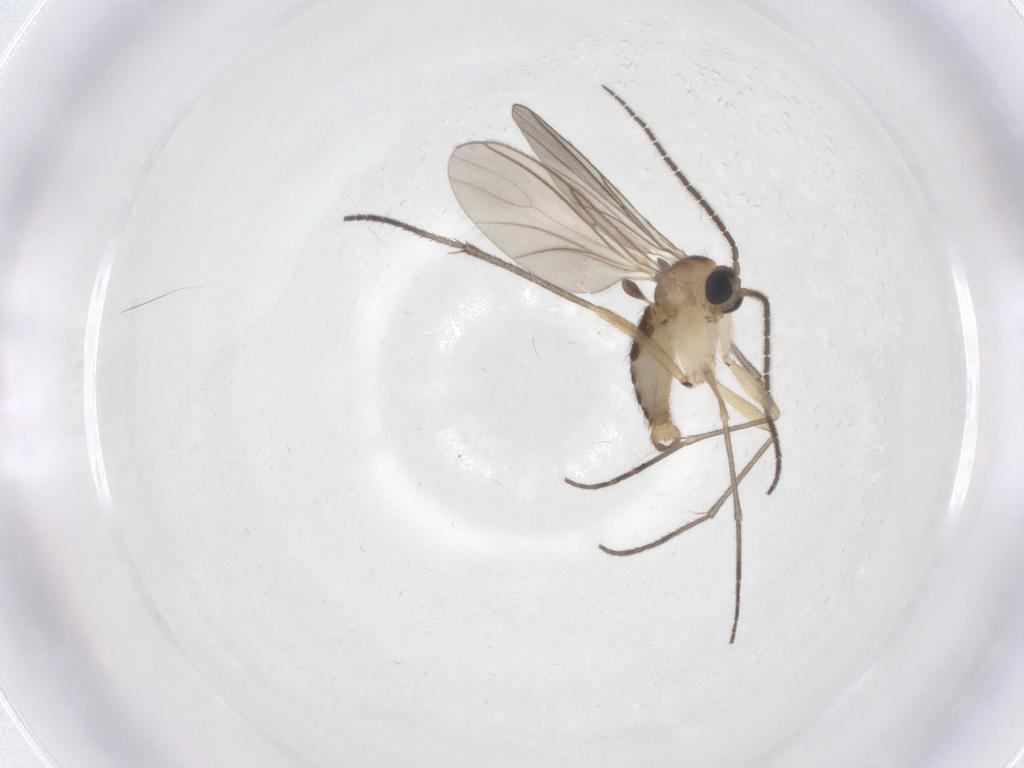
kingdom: Animalia
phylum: Arthropoda
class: Insecta
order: Diptera
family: Sciaridae
